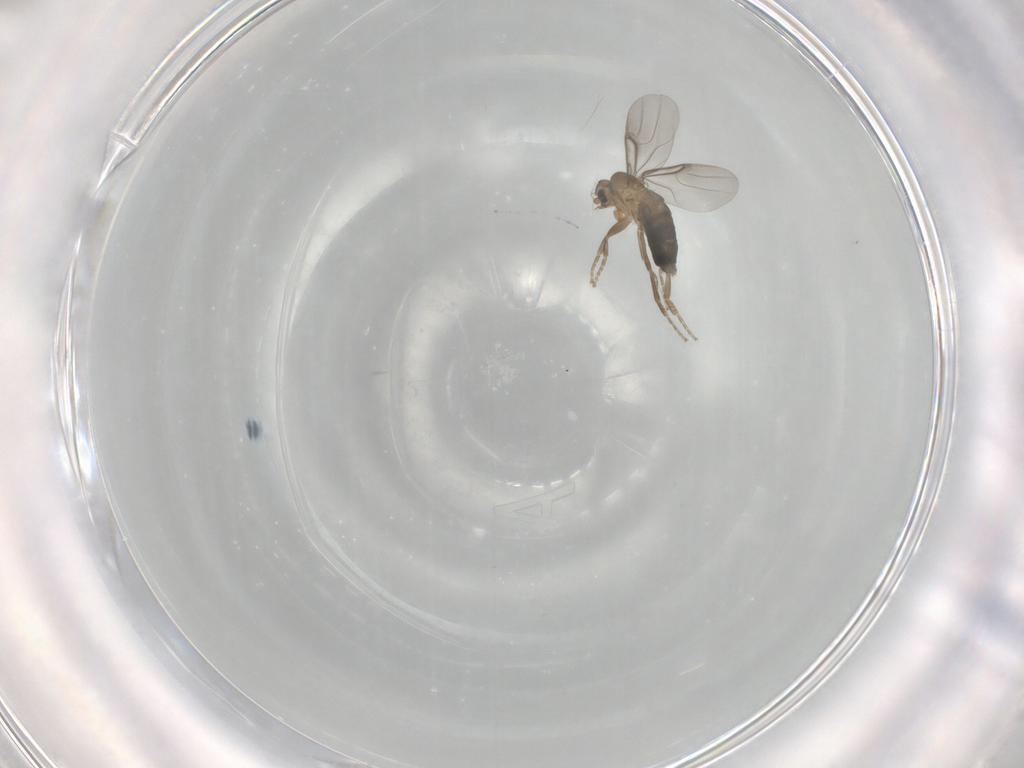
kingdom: Animalia
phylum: Arthropoda
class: Insecta
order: Diptera
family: Phoridae
